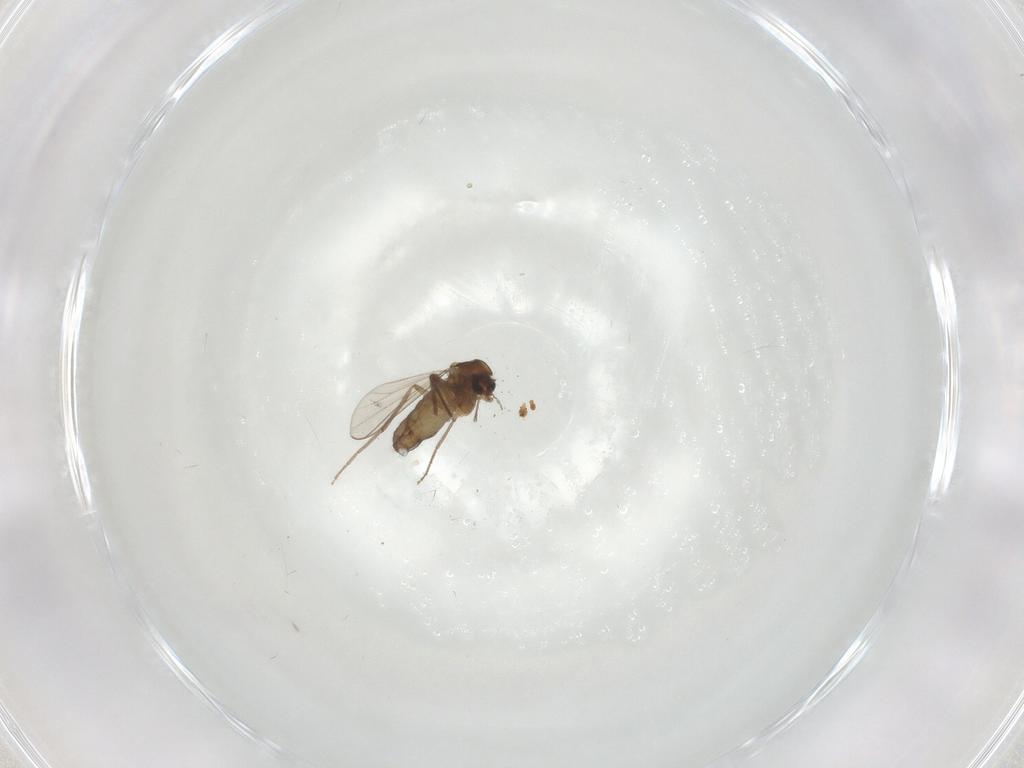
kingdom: Animalia
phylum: Arthropoda
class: Insecta
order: Diptera
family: Chironomidae
